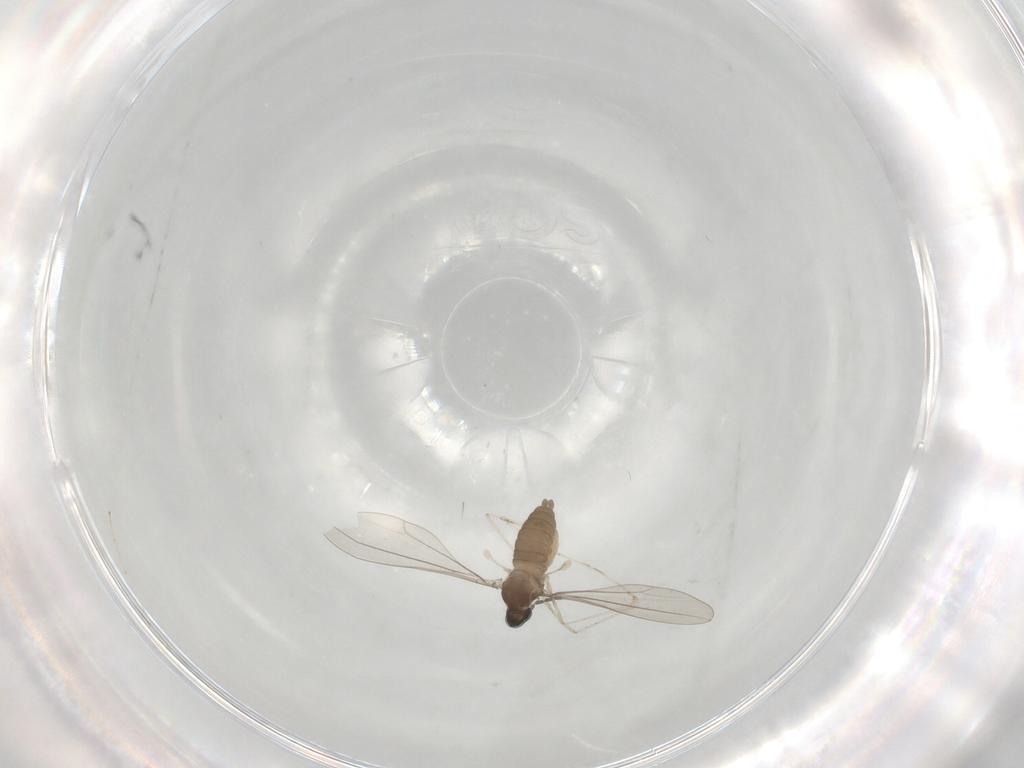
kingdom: Animalia
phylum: Arthropoda
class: Insecta
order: Diptera
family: Cecidomyiidae
